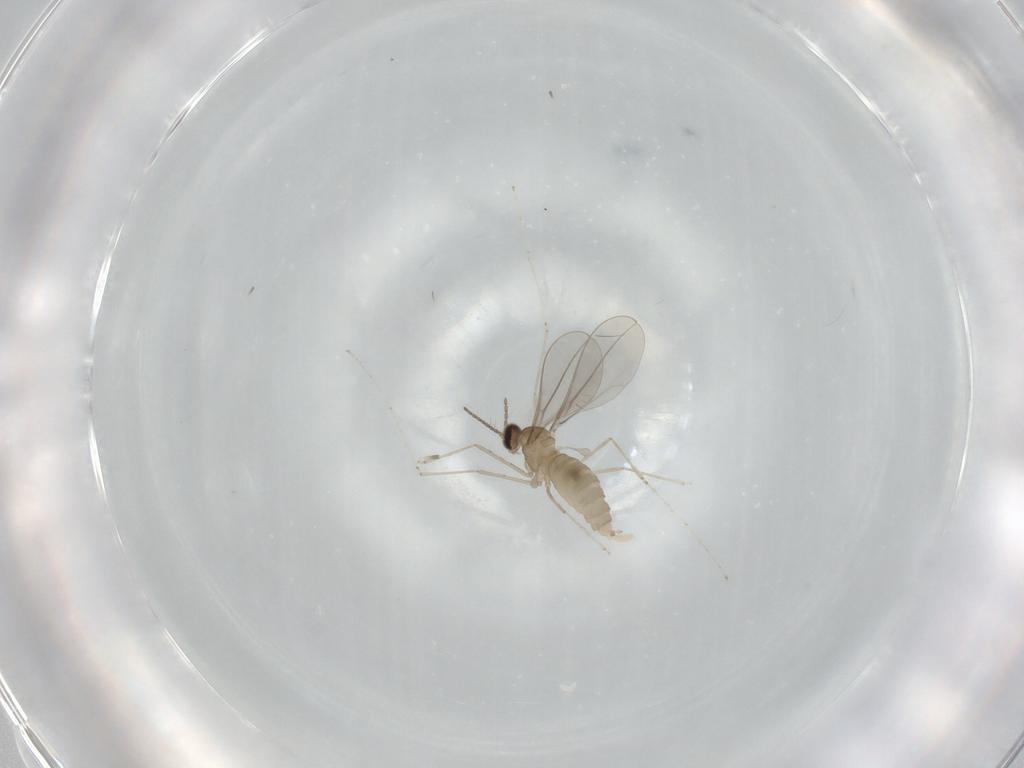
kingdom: Animalia
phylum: Arthropoda
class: Insecta
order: Diptera
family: Cecidomyiidae
